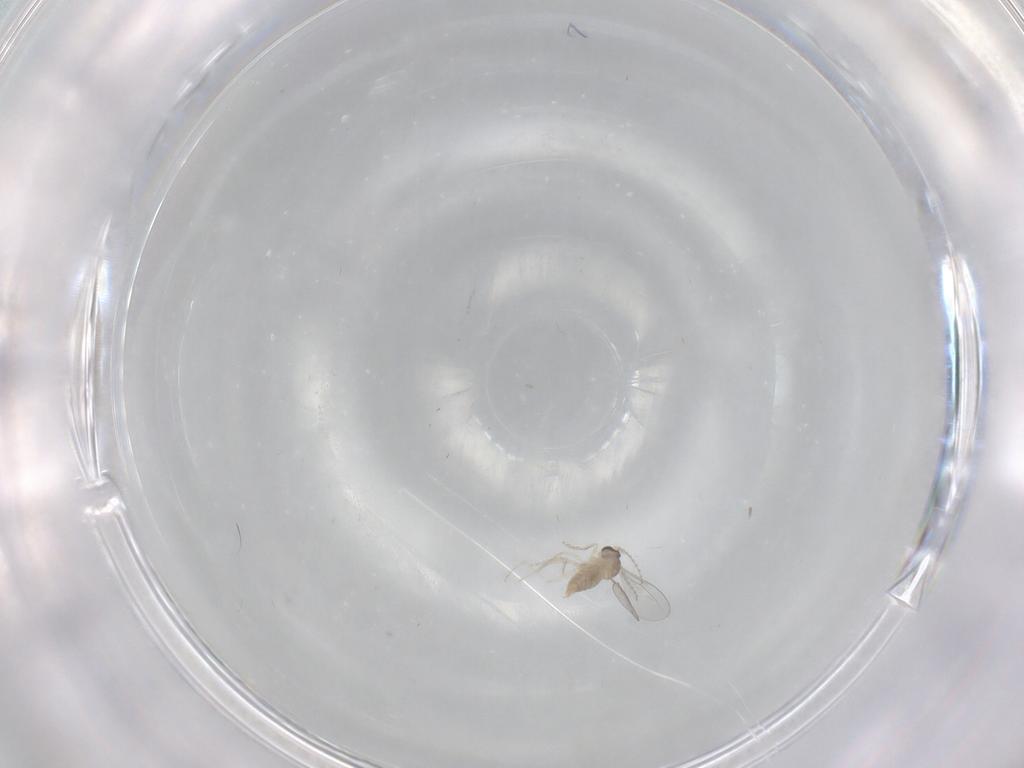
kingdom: Animalia
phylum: Arthropoda
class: Insecta
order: Diptera
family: Cecidomyiidae
